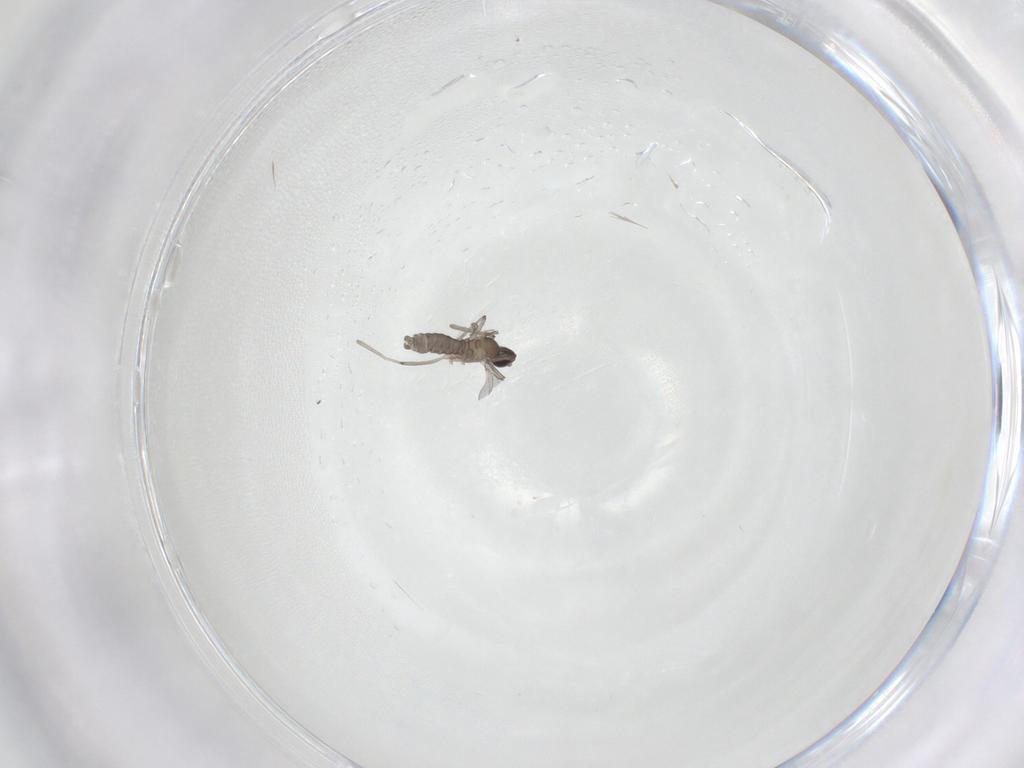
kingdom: Animalia
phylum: Arthropoda
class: Insecta
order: Diptera
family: Cecidomyiidae
